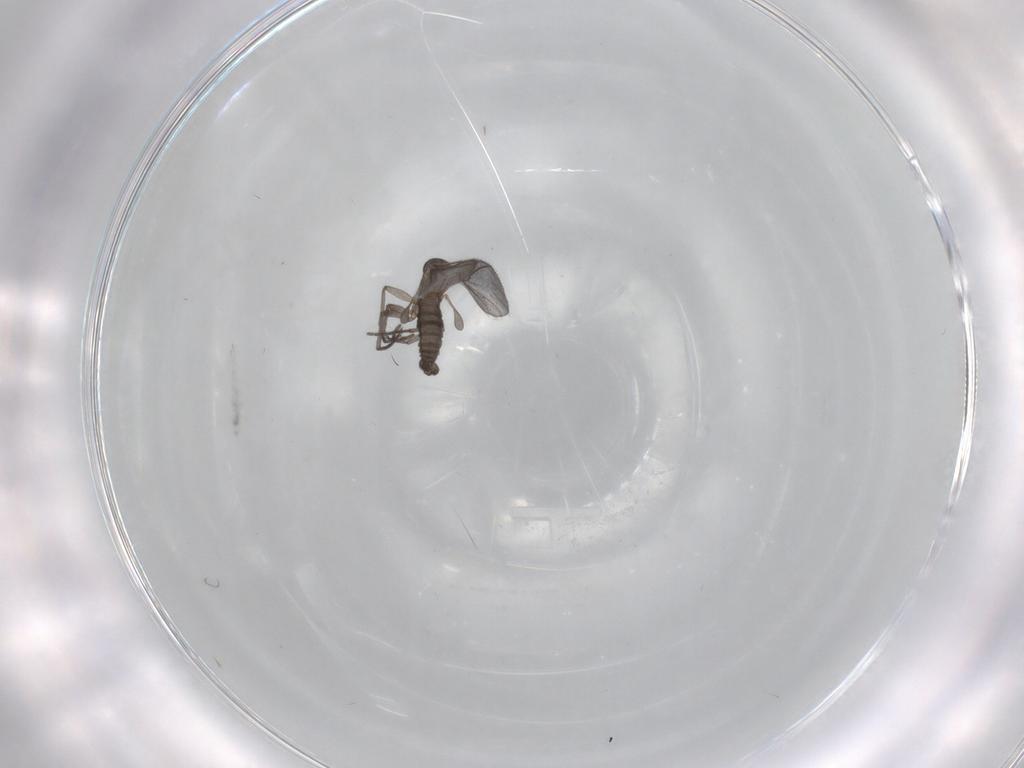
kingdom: Animalia
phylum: Arthropoda
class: Insecta
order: Diptera
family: Sciaridae
